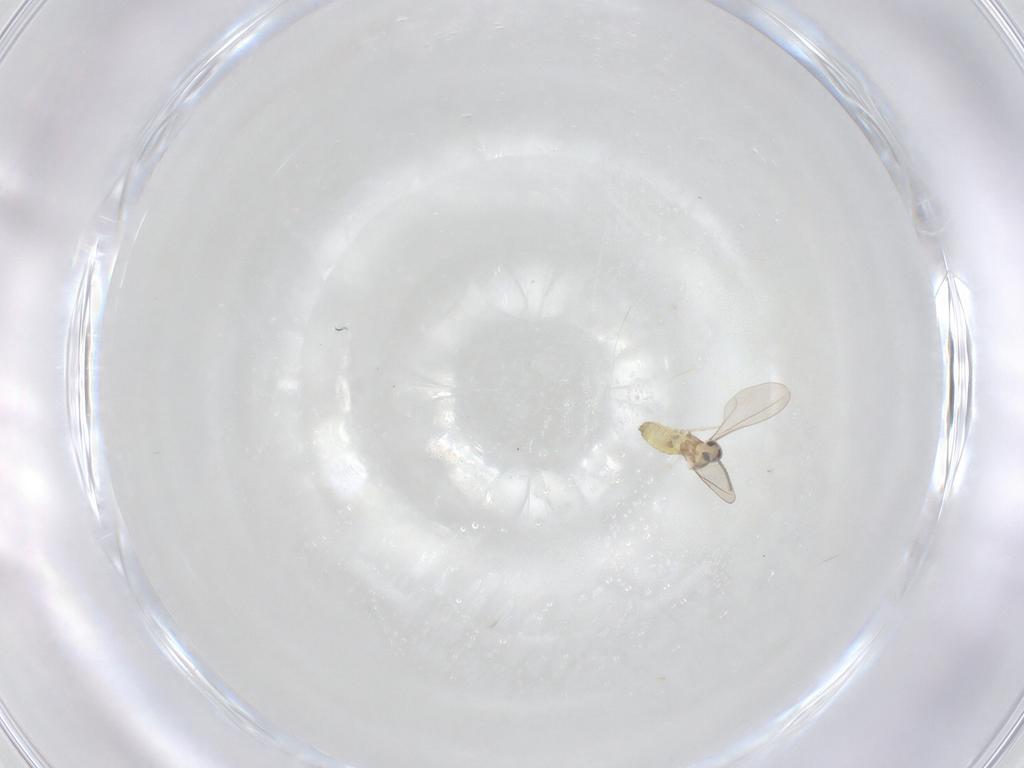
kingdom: Animalia
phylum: Arthropoda
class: Insecta
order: Diptera
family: Cecidomyiidae
